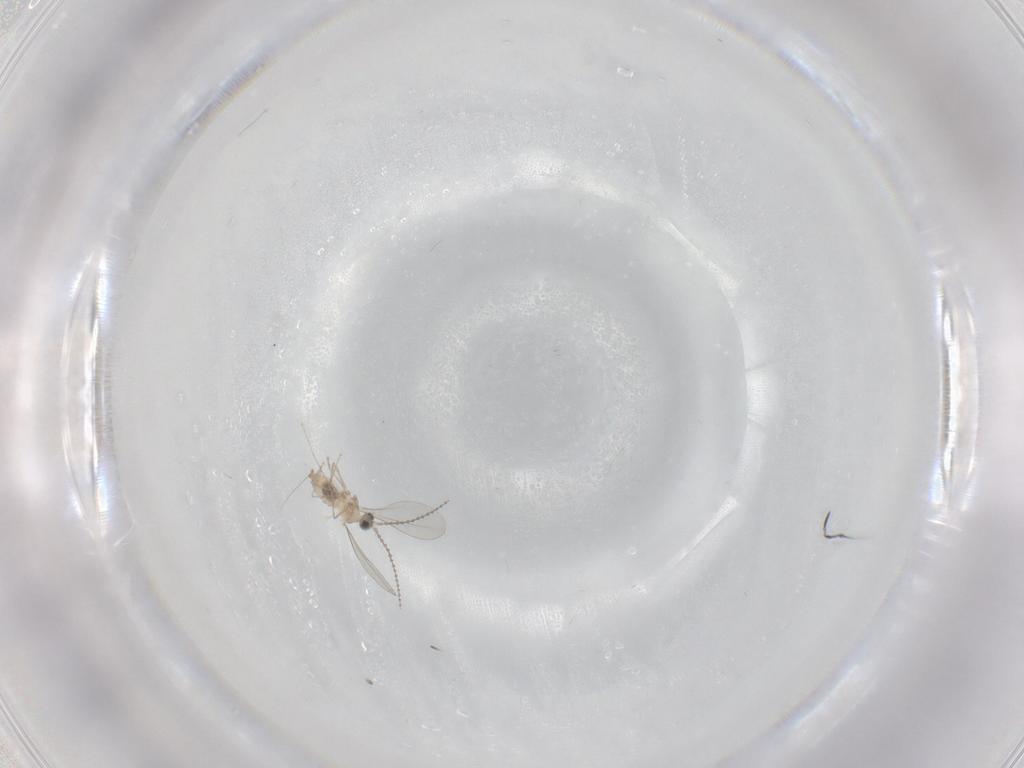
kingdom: Animalia
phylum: Arthropoda
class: Insecta
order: Diptera
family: Cecidomyiidae
